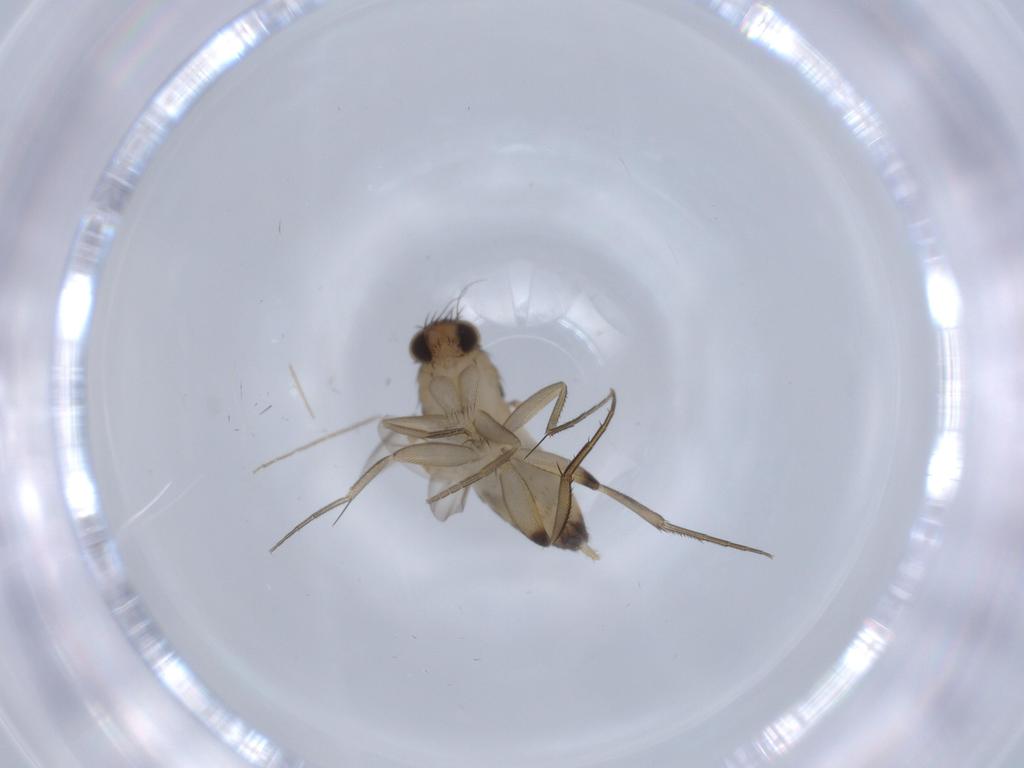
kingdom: Animalia
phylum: Arthropoda
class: Insecta
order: Diptera
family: Phoridae
